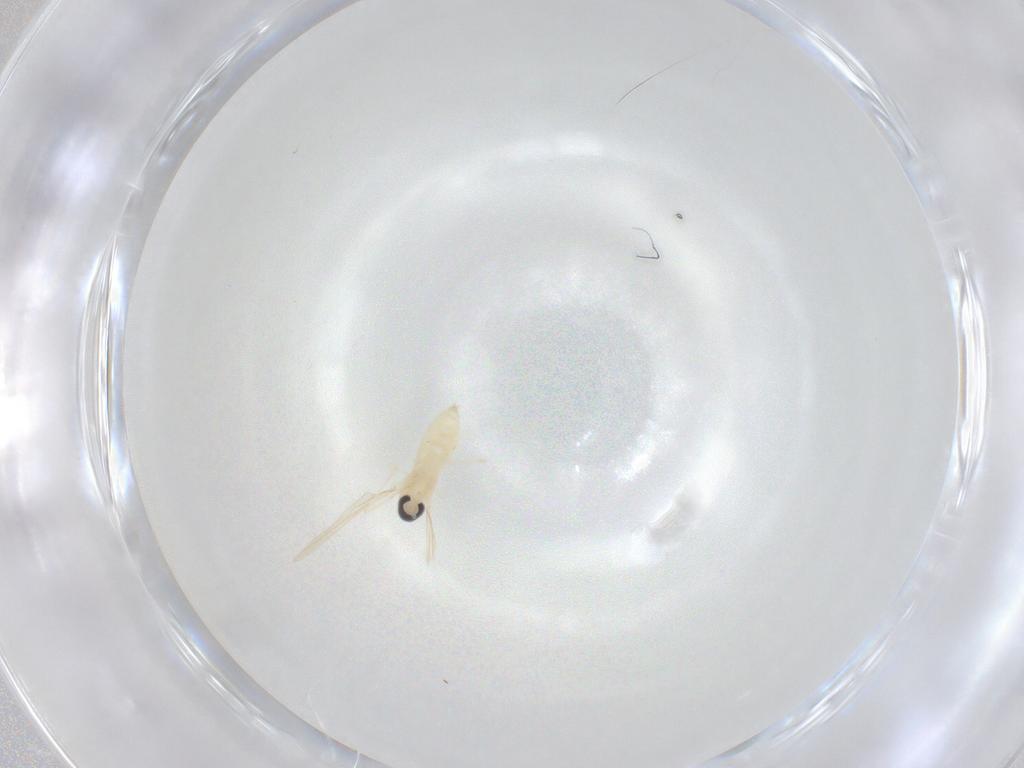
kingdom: Animalia
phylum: Arthropoda
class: Insecta
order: Diptera
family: Cecidomyiidae
